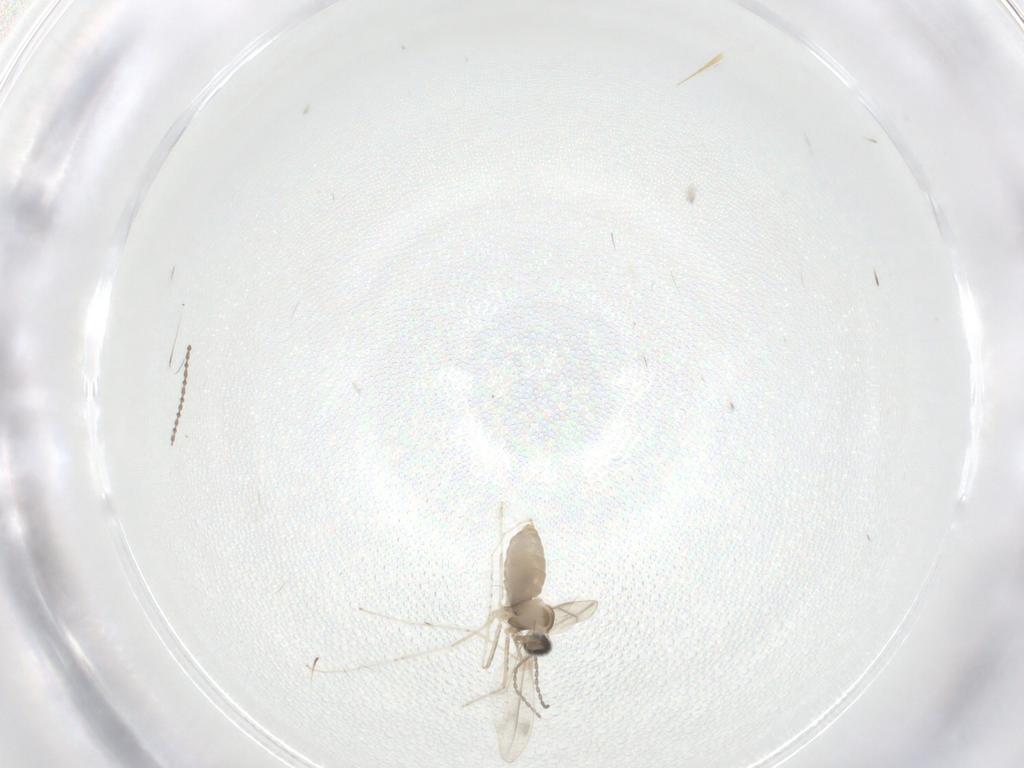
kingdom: Animalia
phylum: Arthropoda
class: Insecta
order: Diptera
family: Cecidomyiidae
